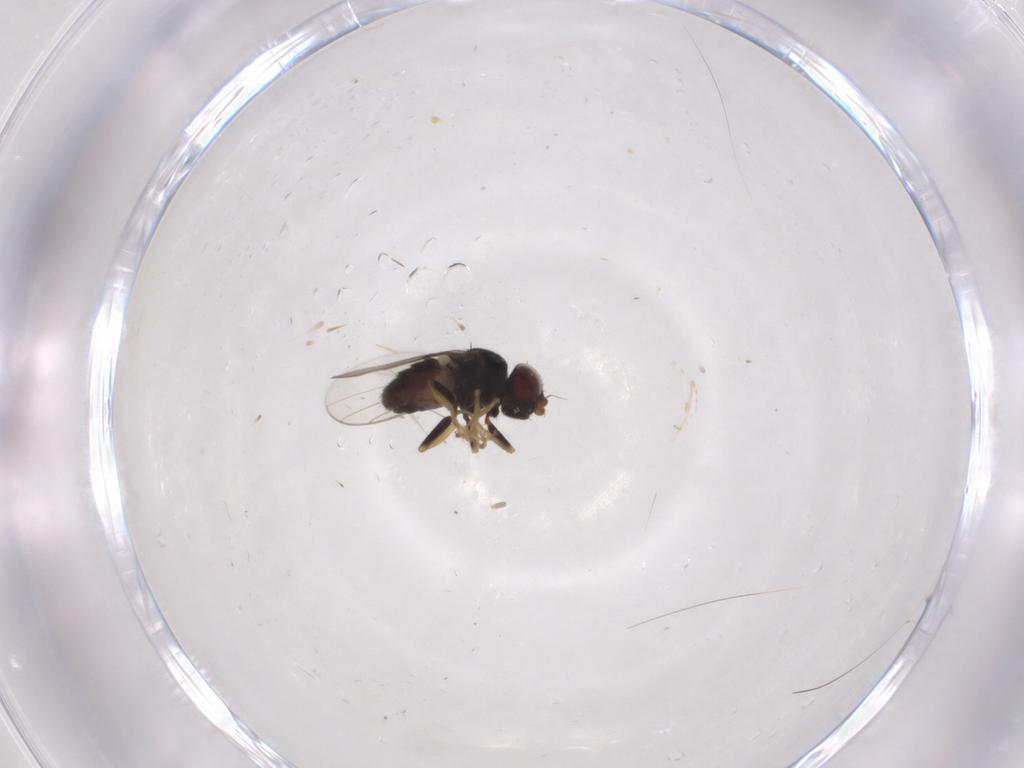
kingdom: Animalia
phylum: Arthropoda
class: Insecta
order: Diptera
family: Chloropidae
